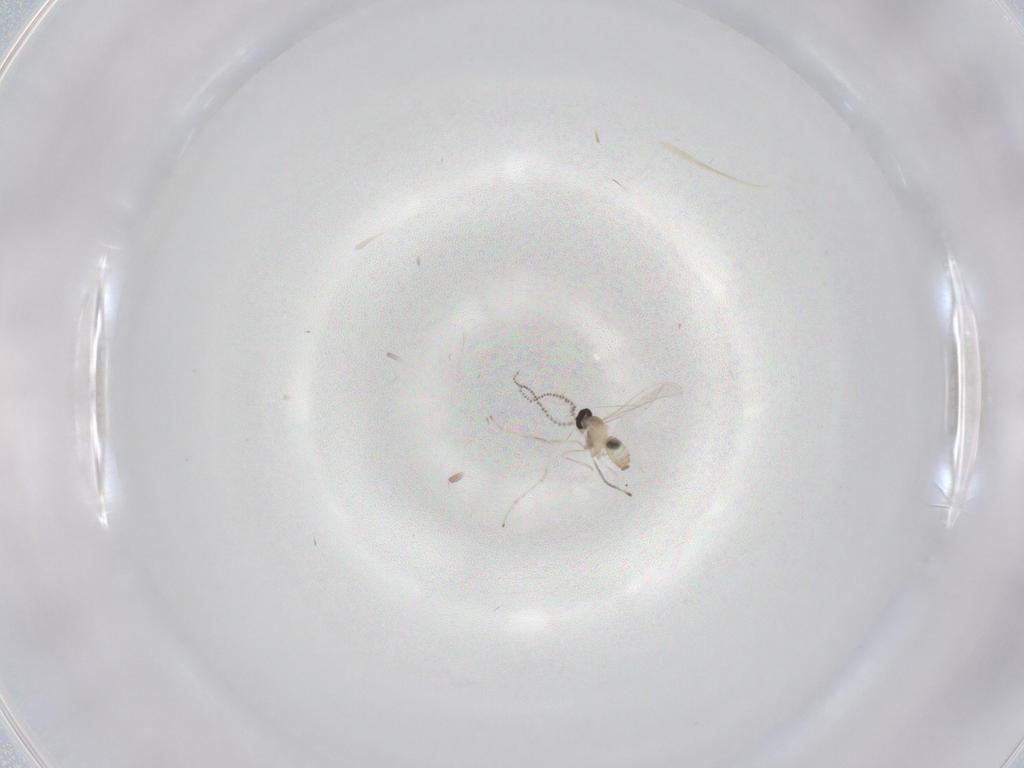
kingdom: Animalia
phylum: Arthropoda
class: Insecta
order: Diptera
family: Cecidomyiidae
